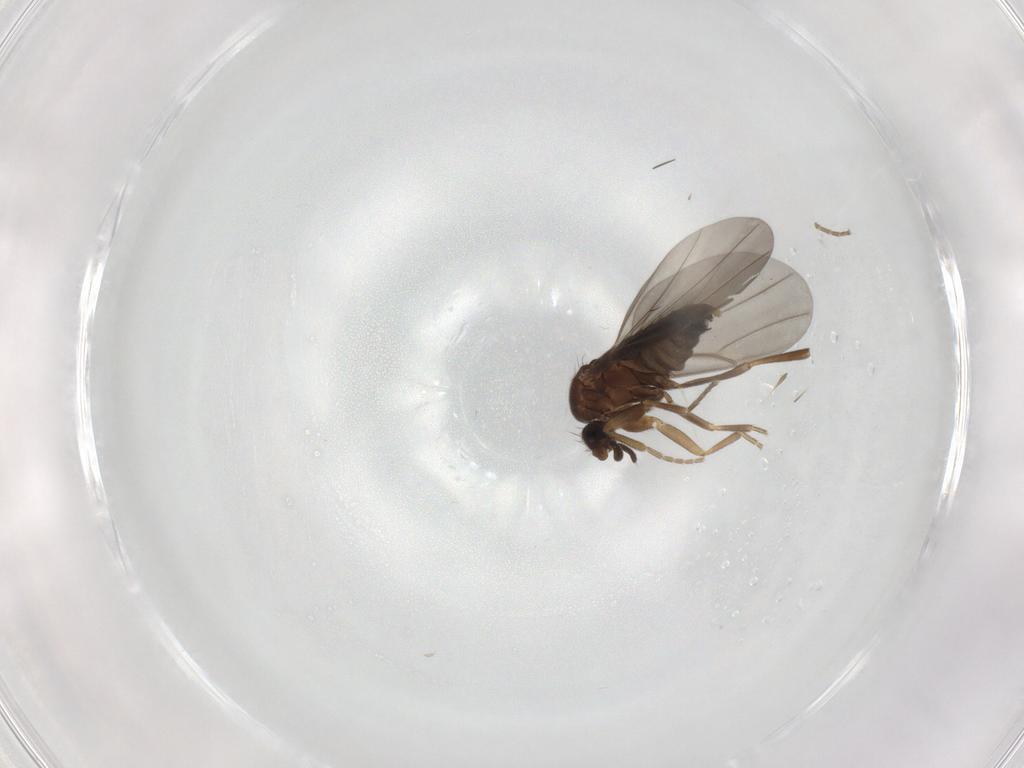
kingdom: Animalia
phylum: Arthropoda
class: Insecta
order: Diptera
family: Phoridae
